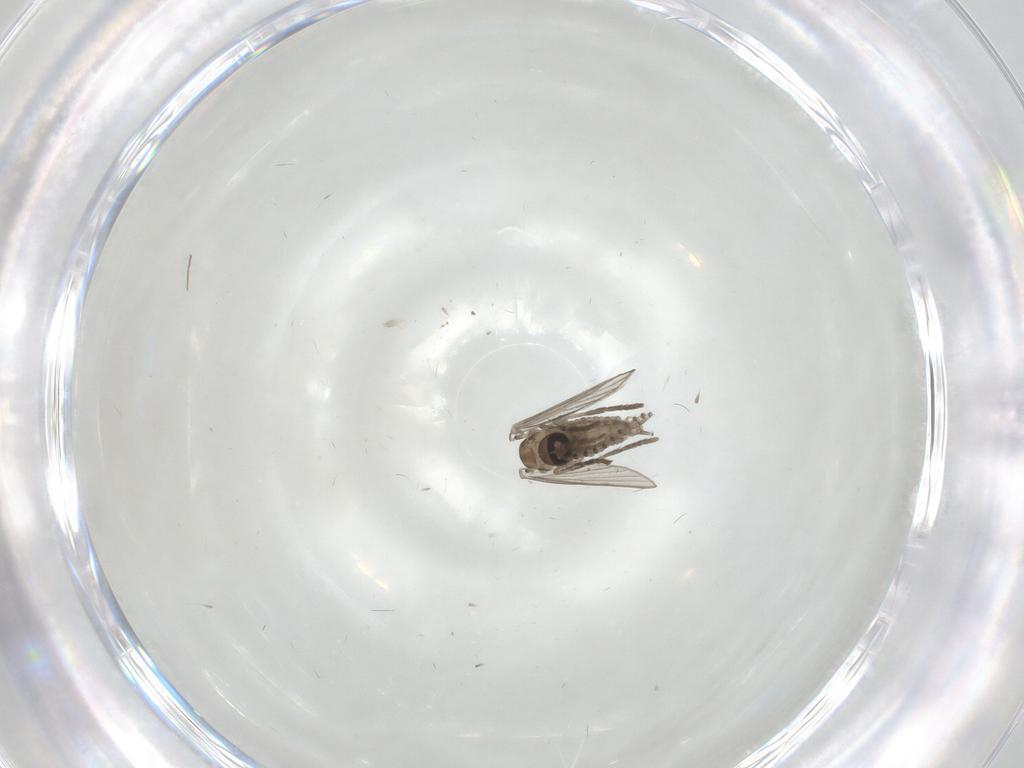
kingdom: Animalia
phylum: Arthropoda
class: Insecta
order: Diptera
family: Psychodidae
